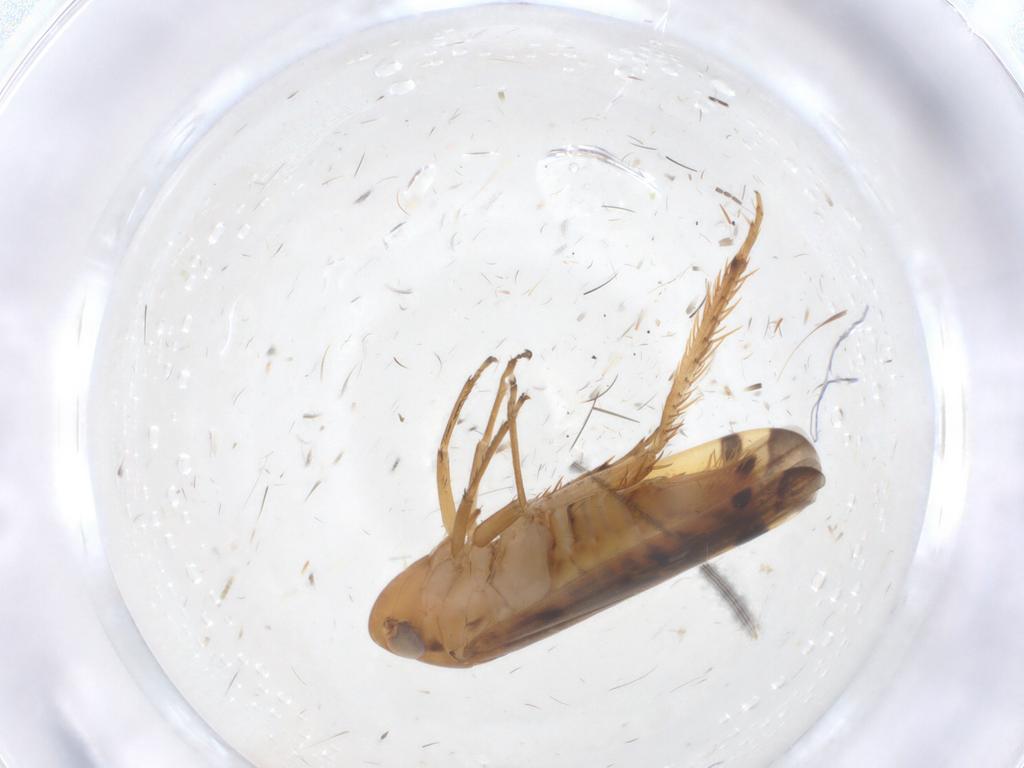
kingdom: Animalia
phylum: Arthropoda
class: Insecta
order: Hemiptera
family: Cicadellidae
